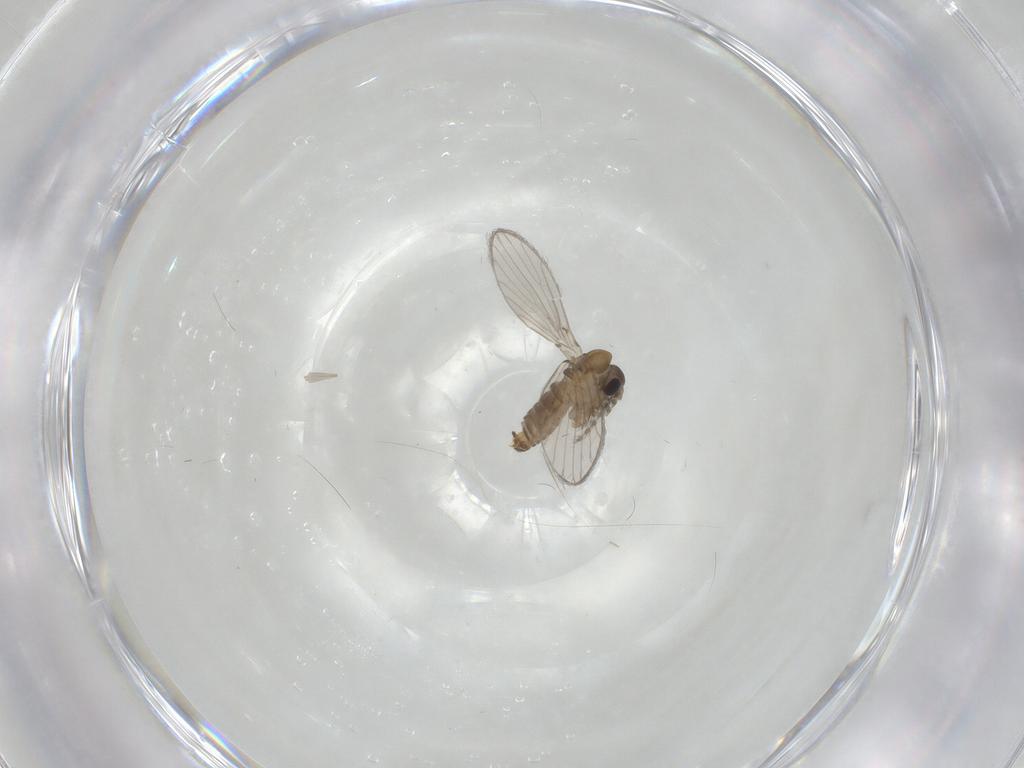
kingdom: Animalia
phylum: Arthropoda
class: Insecta
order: Diptera
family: Psychodidae
